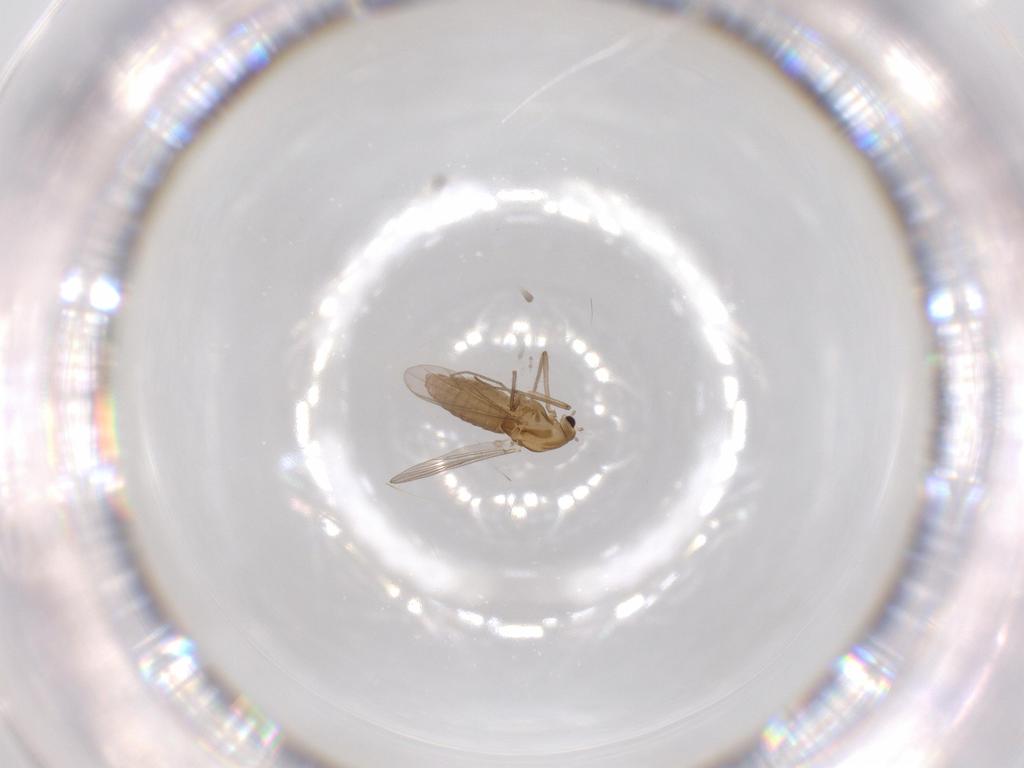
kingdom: Animalia
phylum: Arthropoda
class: Insecta
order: Diptera
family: Chironomidae
